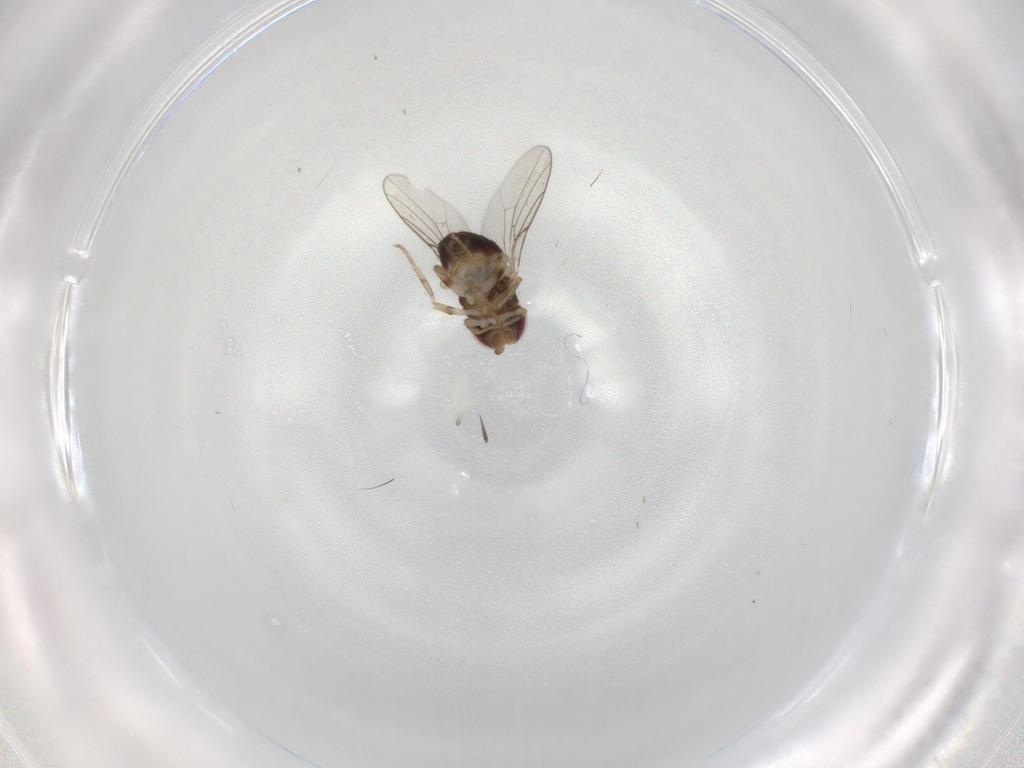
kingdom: Animalia
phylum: Arthropoda
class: Insecta
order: Diptera
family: Chloropidae
